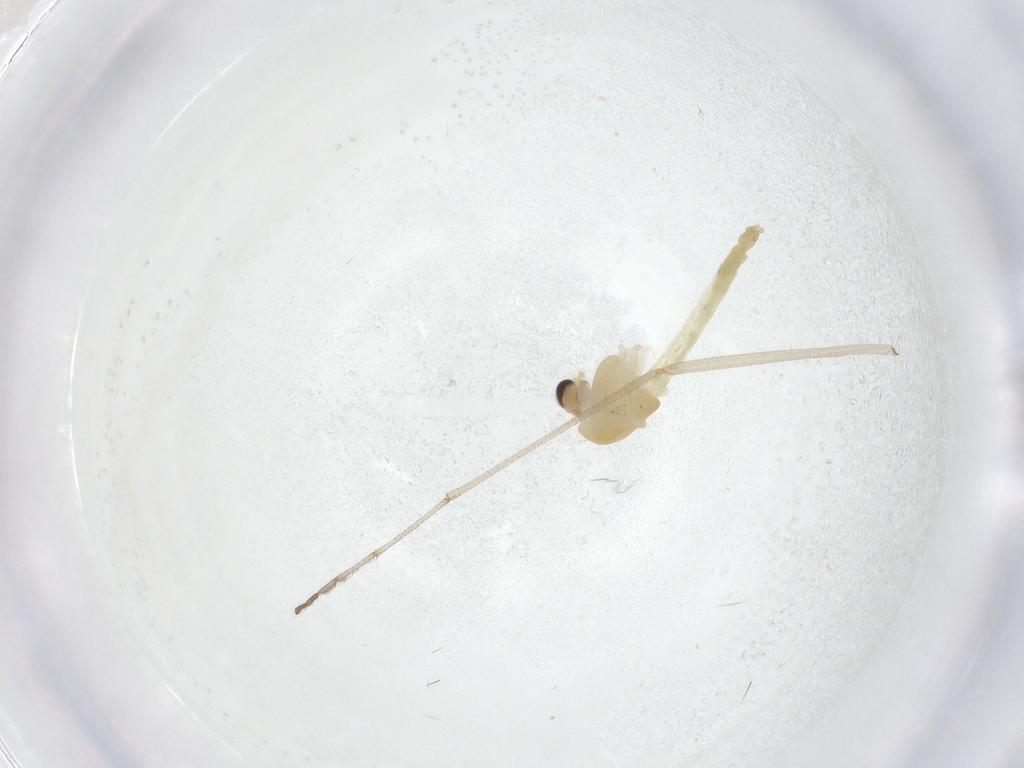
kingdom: Animalia
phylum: Arthropoda
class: Insecta
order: Diptera
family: Chironomidae
